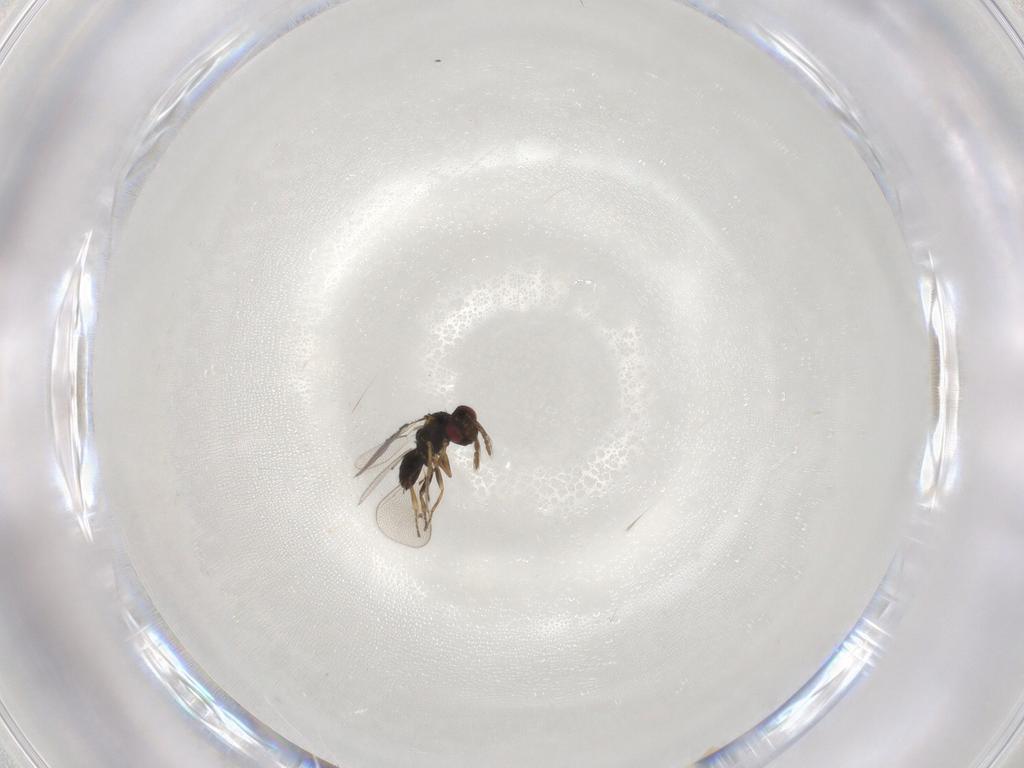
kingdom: Animalia
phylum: Arthropoda
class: Insecta
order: Hymenoptera
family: Eulophidae
